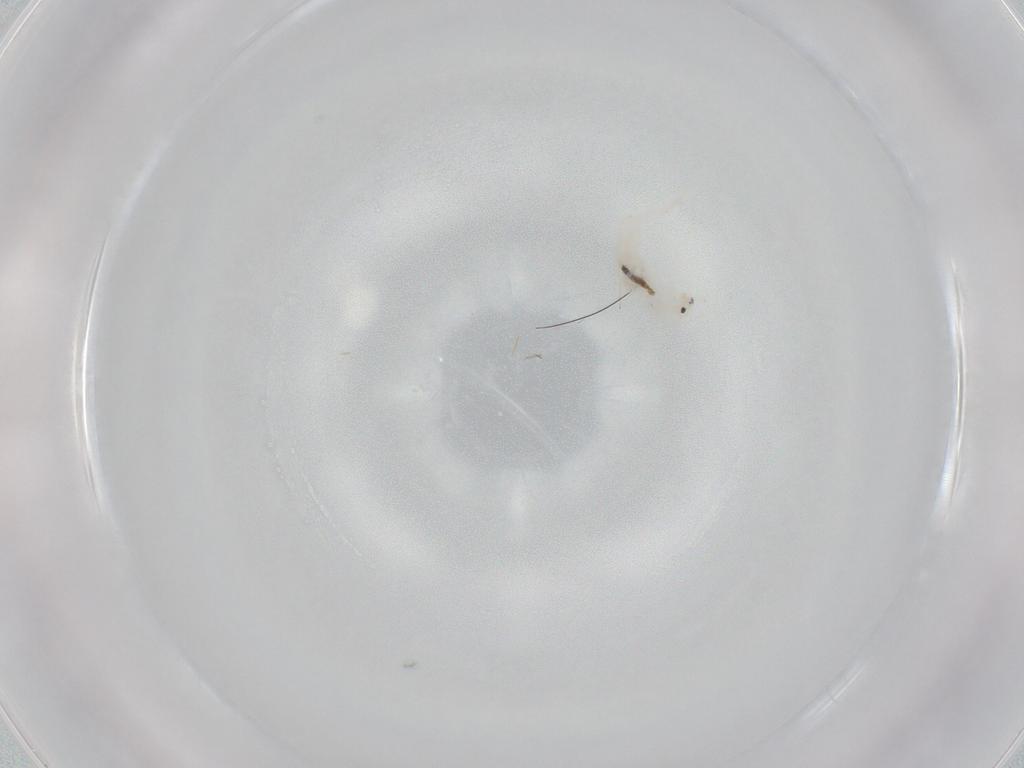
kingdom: Animalia
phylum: Arthropoda
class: Collembola
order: Entomobryomorpha
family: Entomobryidae
